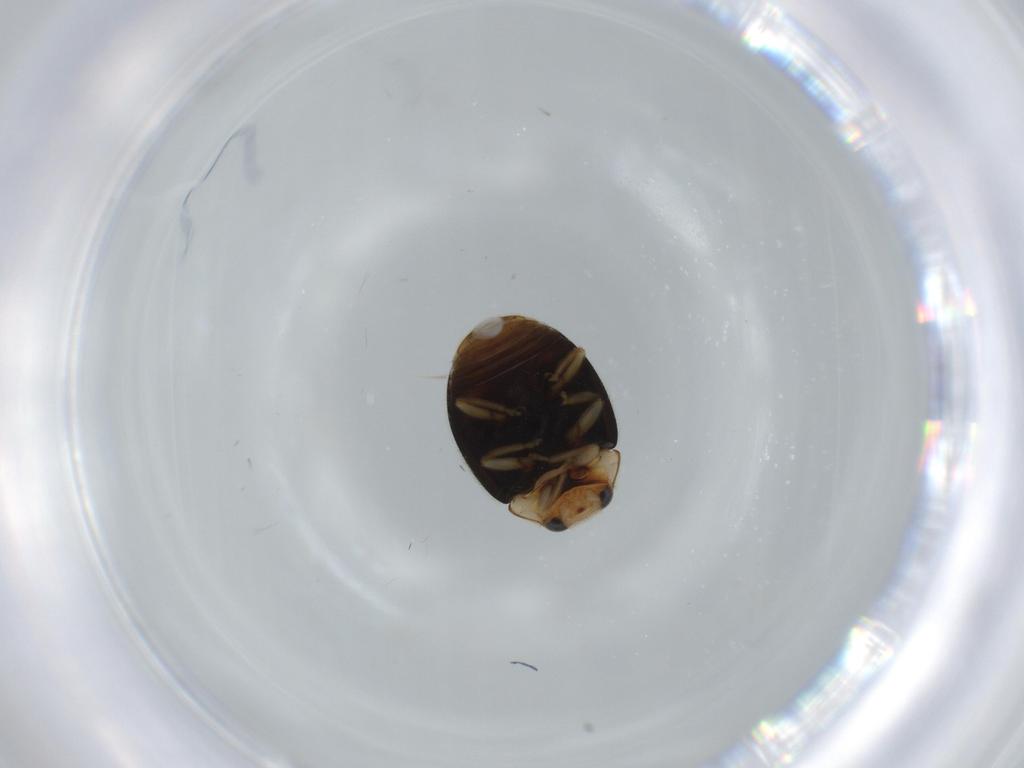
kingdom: Animalia
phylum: Arthropoda
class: Insecta
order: Coleoptera
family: Coccinellidae
